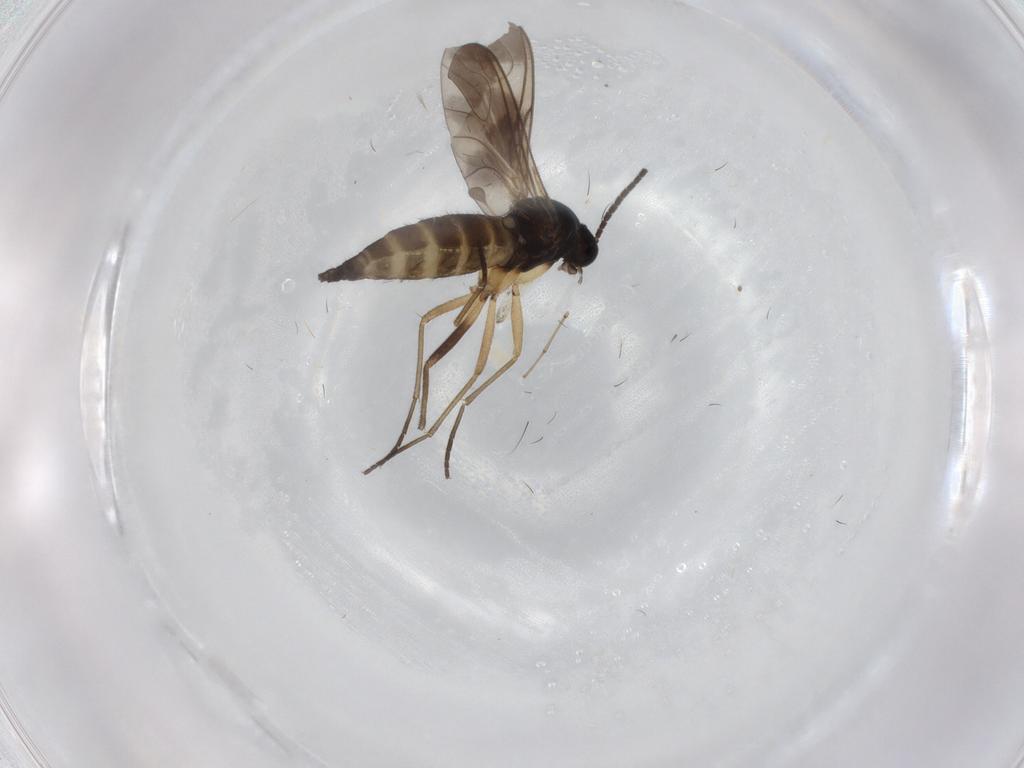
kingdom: Animalia
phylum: Arthropoda
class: Insecta
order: Diptera
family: Sciaridae
